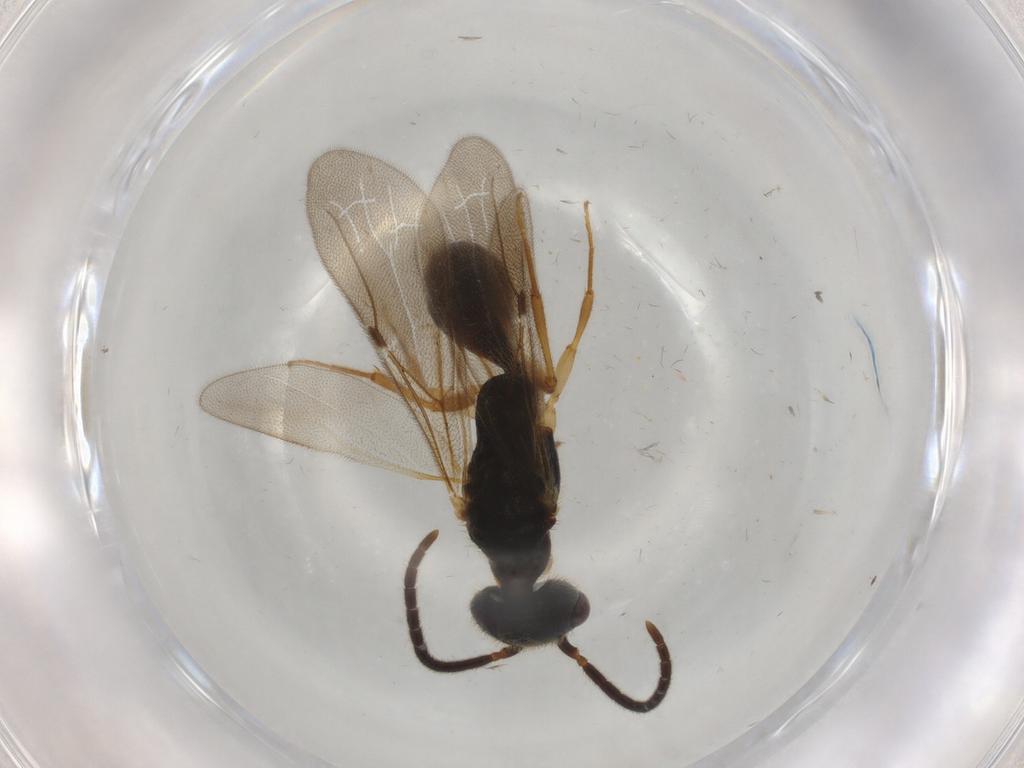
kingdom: Animalia
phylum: Arthropoda
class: Insecta
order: Hymenoptera
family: Bethylidae
